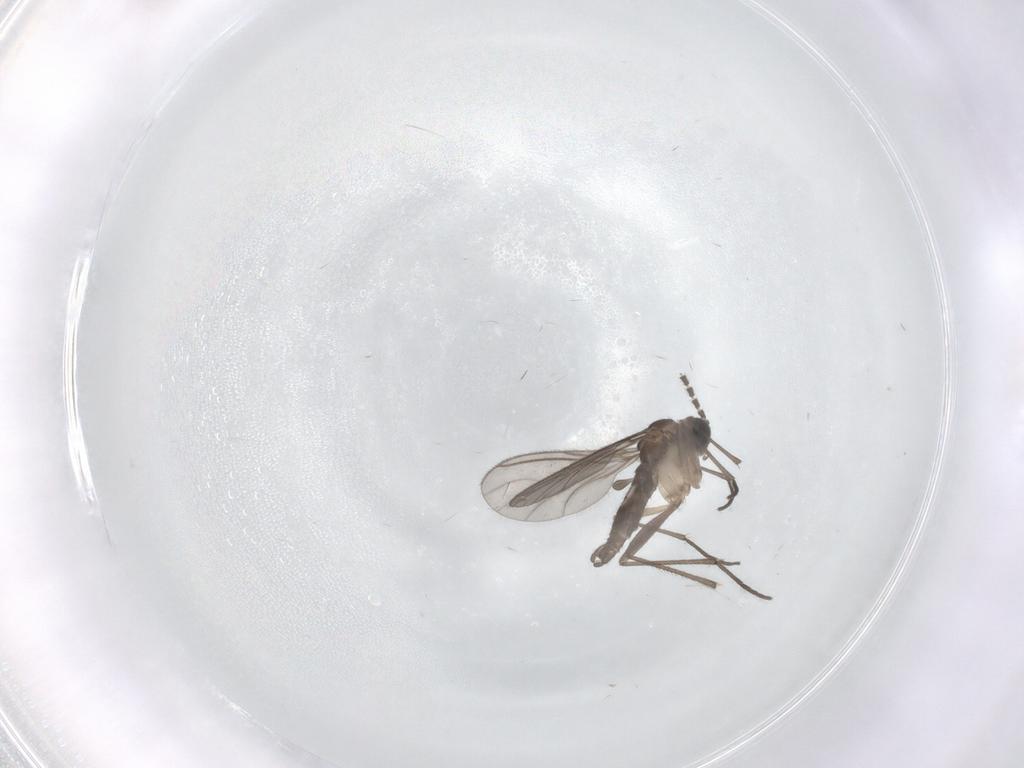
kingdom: Animalia
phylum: Arthropoda
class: Insecta
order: Diptera
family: Sciaridae
